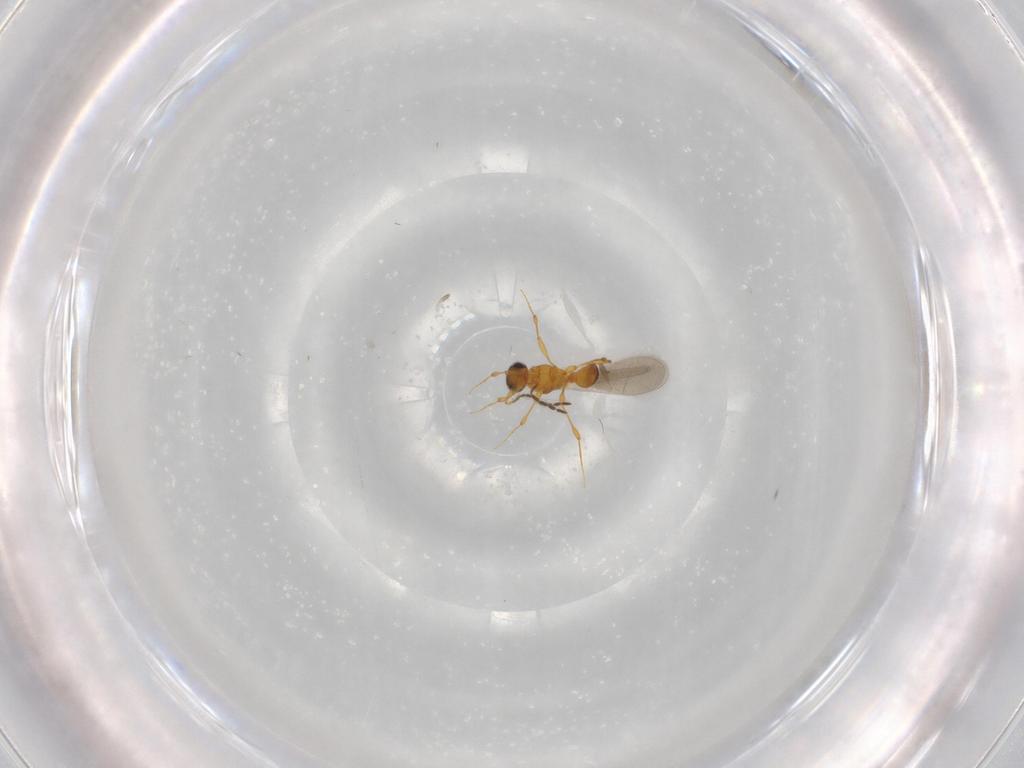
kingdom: Animalia
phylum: Arthropoda
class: Insecta
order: Hymenoptera
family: Platygastridae
